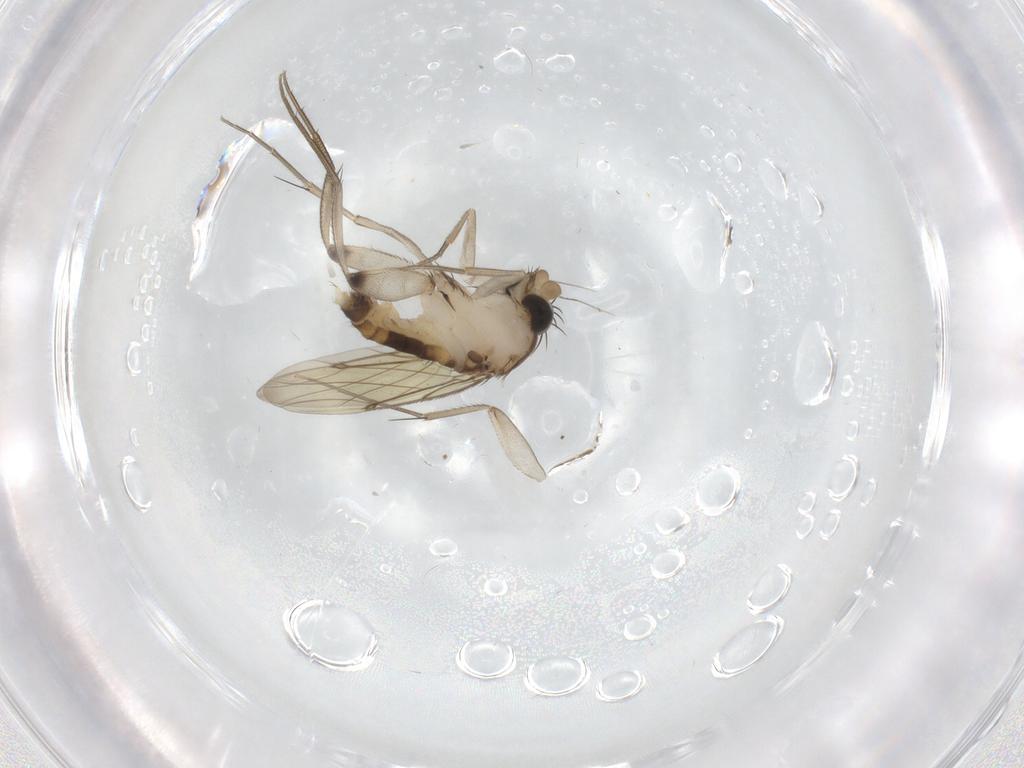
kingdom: Animalia
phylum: Arthropoda
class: Insecta
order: Diptera
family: Phoridae
